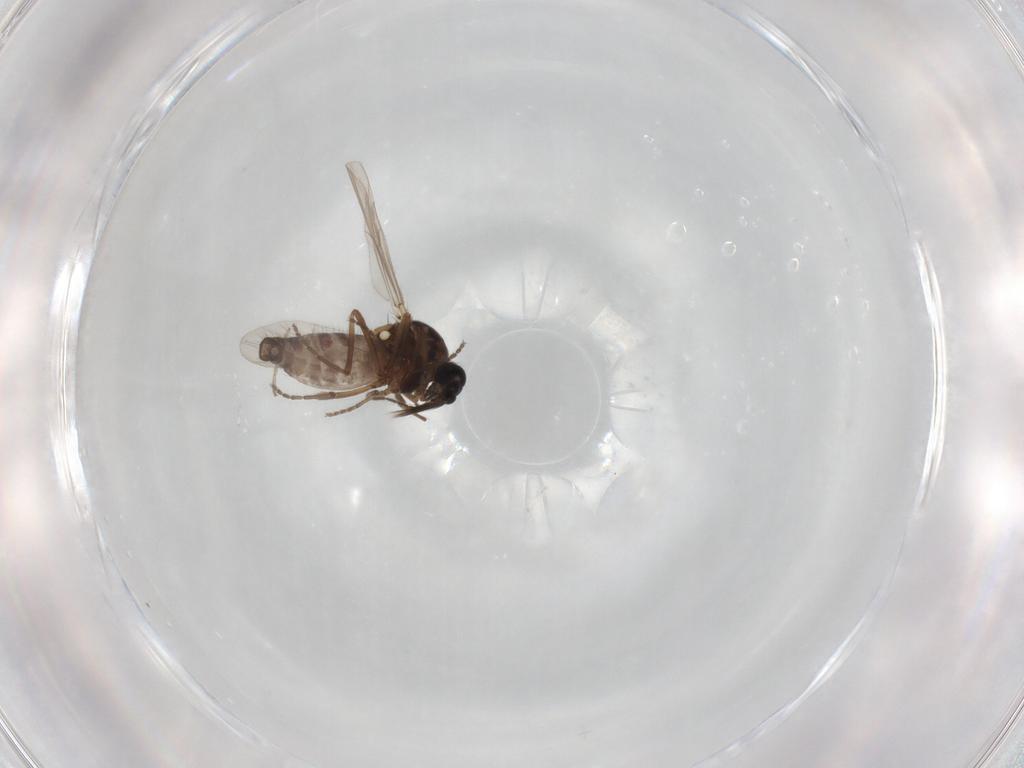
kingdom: Animalia
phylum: Arthropoda
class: Insecta
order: Diptera
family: Ceratopogonidae
